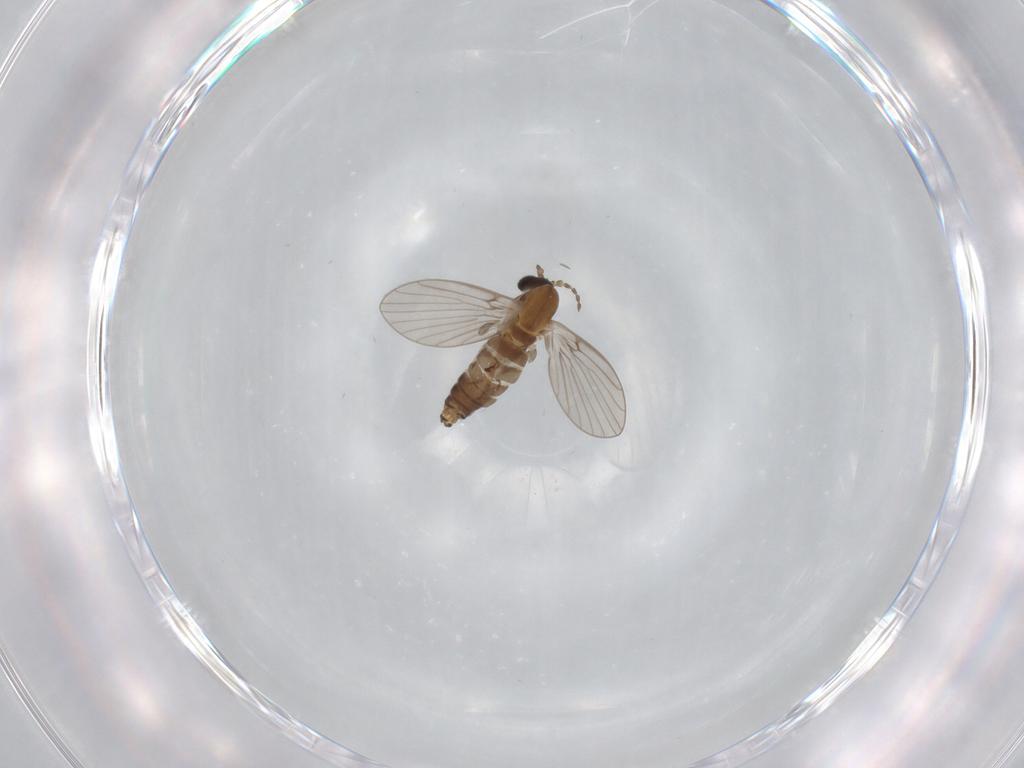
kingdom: Animalia
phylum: Arthropoda
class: Insecta
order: Diptera
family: Psychodidae
